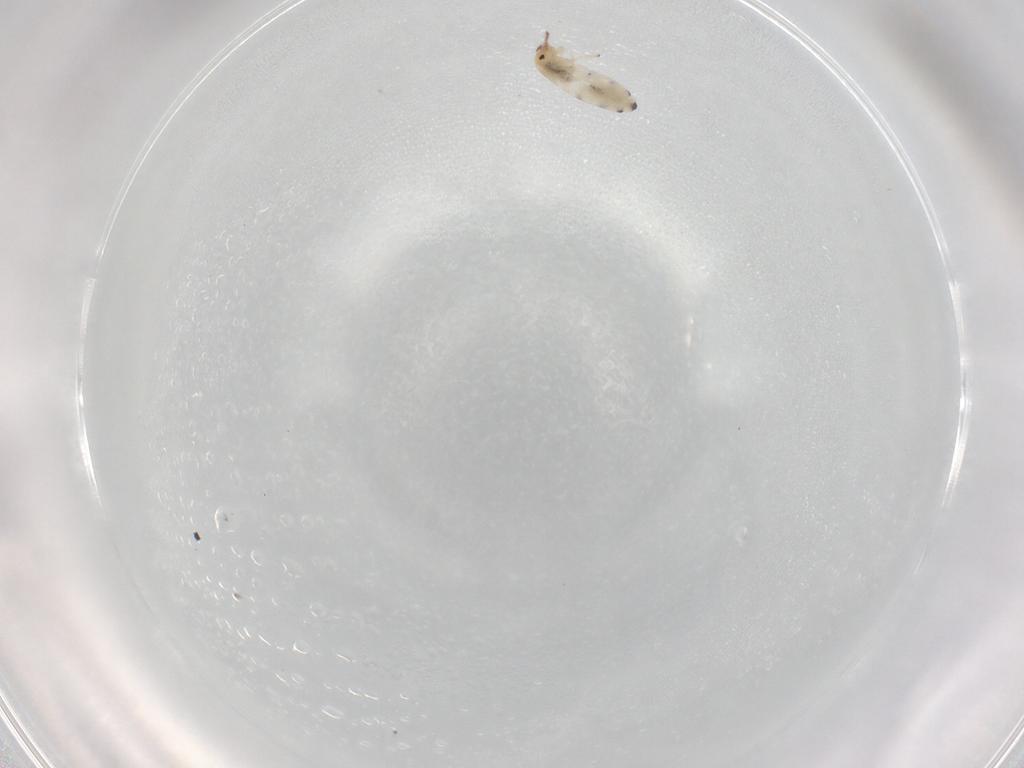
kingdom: Animalia
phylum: Arthropoda
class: Collembola
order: Entomobryomorpha
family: Entomobryidae
